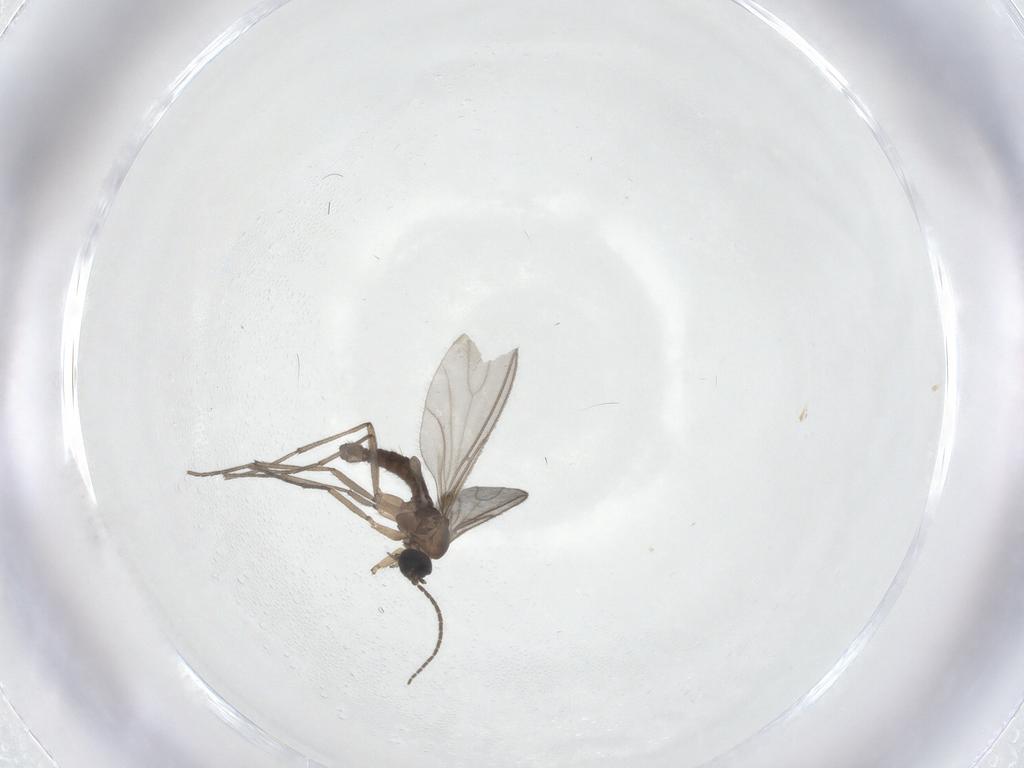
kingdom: Animalia
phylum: Arthropoda
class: Insecta
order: Diptera
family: Sciaridae
